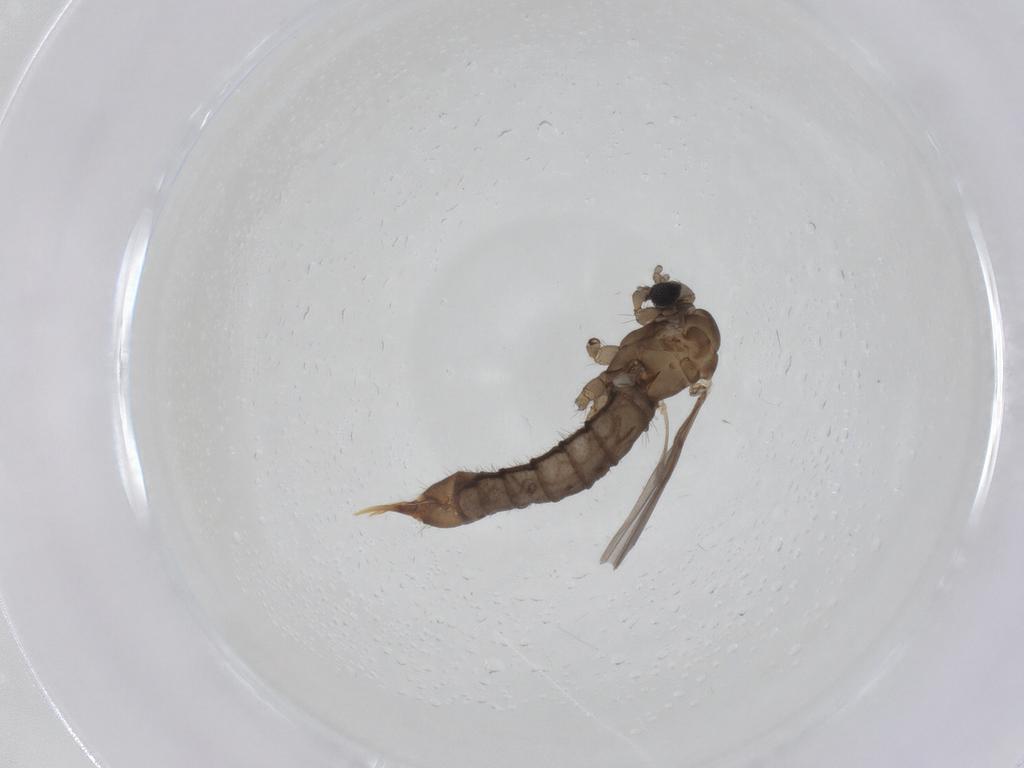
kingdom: Animalia
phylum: Arthropoda
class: Insecta
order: Diptera
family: Limoniidae
